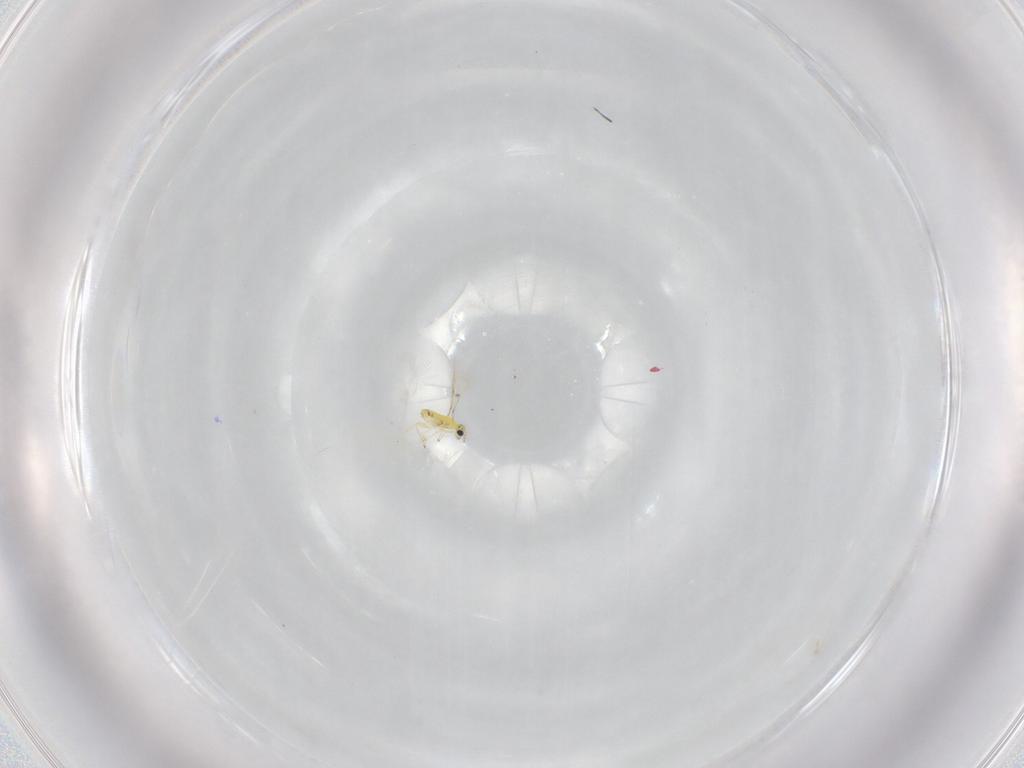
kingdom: Animalia
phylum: Arthropoda
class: Insecta
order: Hymenoptera
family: Trichogrammatidae
